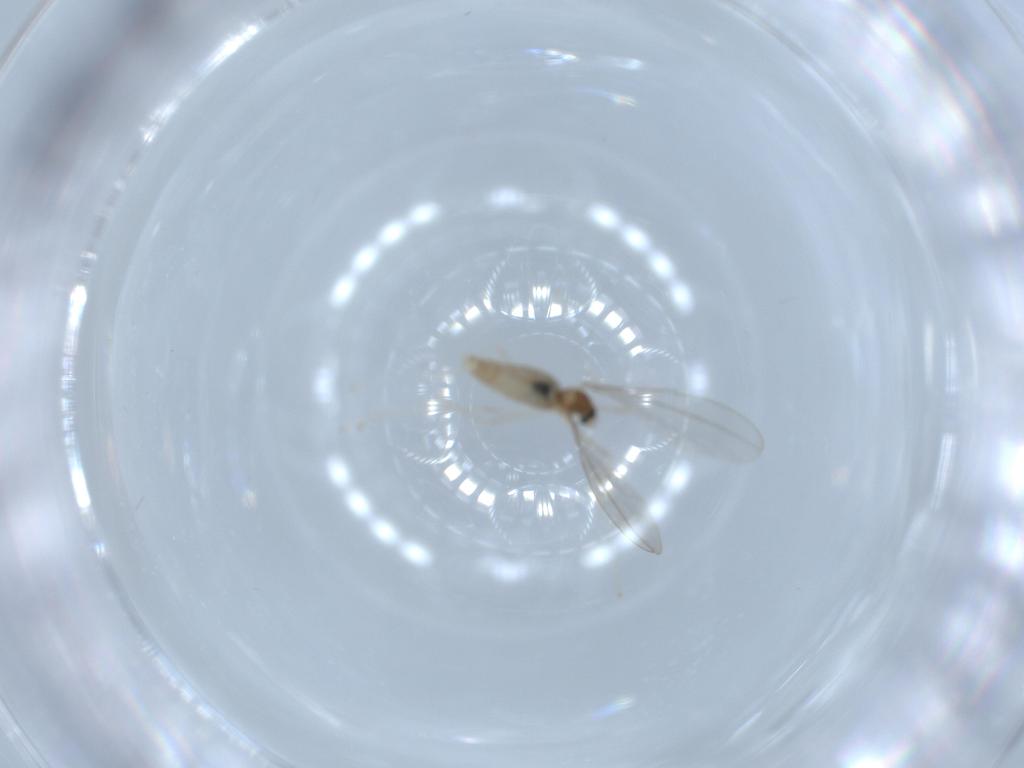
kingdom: Animalia
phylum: Arthropoda
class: Insecta
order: Diptera
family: Cecidomyiidae
